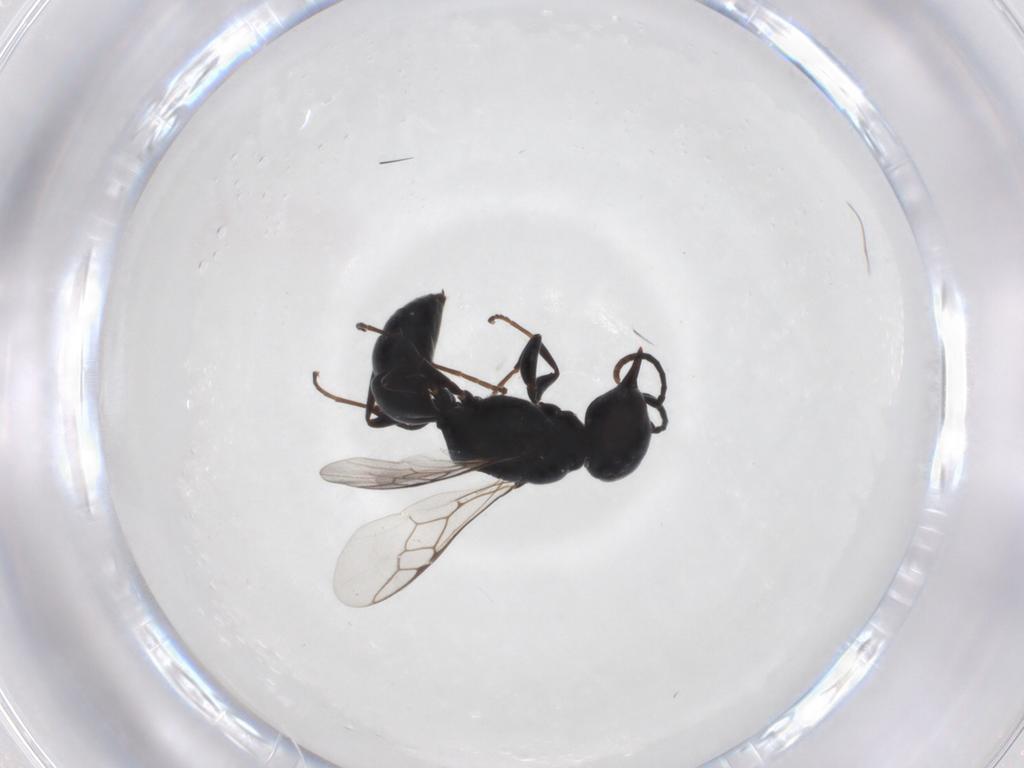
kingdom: Animalia
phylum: Arthropoda
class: Insecta
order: Hymenoptera
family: Crabronidae
